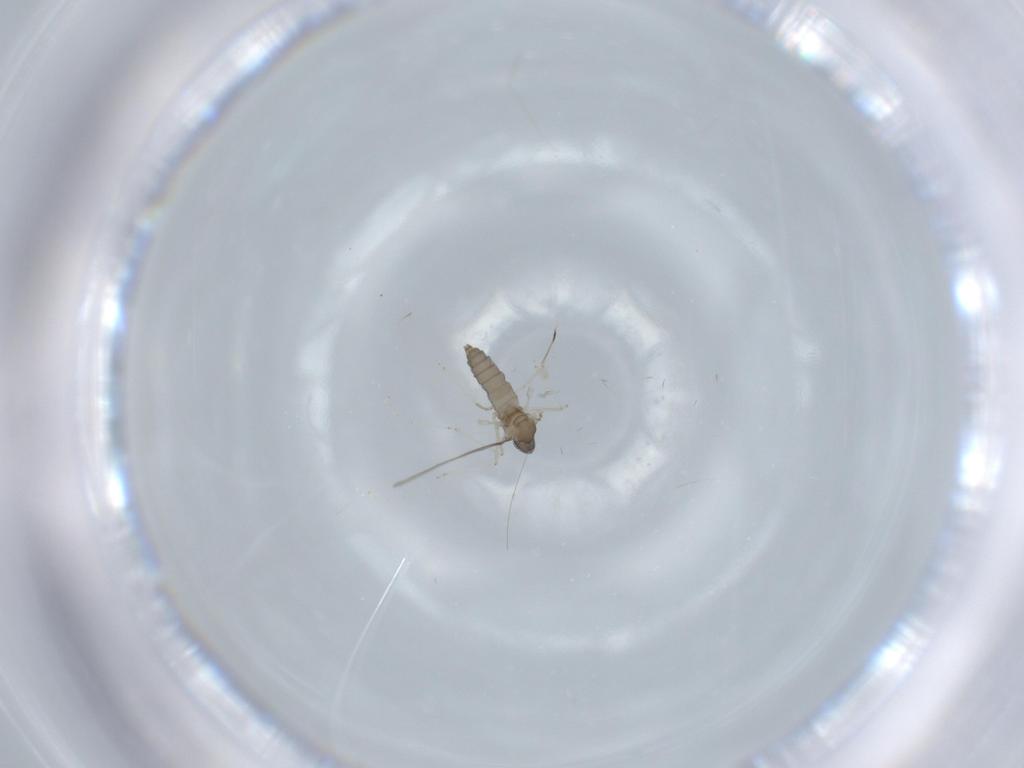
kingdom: Animalia
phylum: Arthropoda
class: Insecta
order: Diptera
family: Cecidomyiidae
